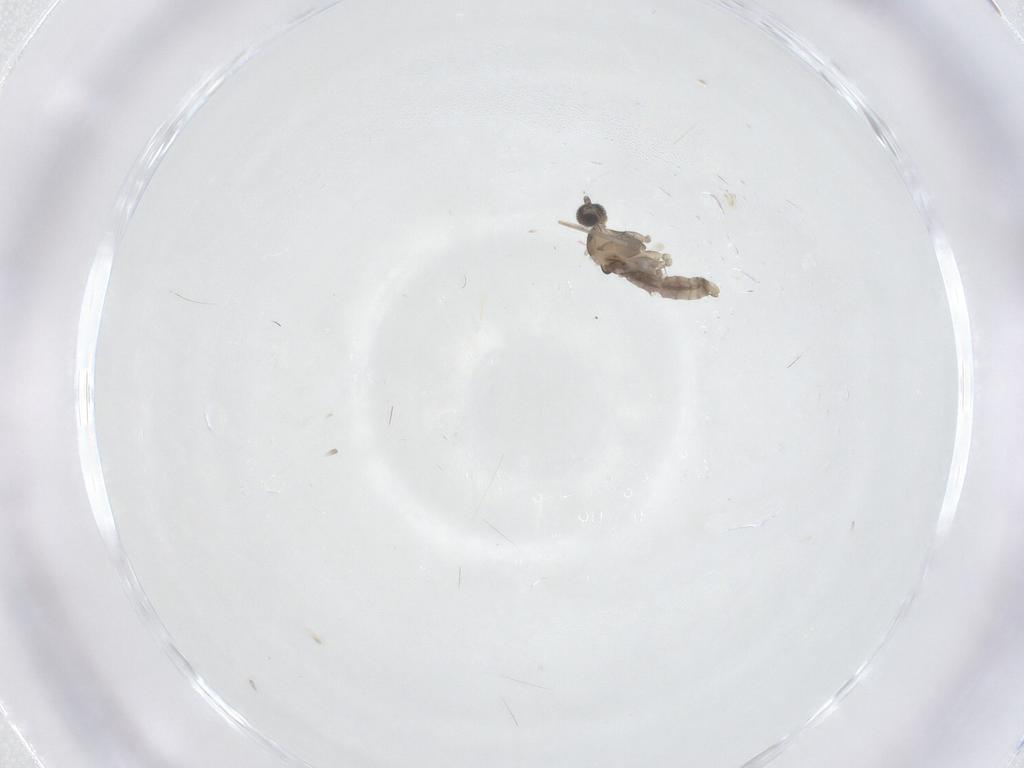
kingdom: Animalia
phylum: Arthropoda
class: Insecta
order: Diptera
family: Cecidomyiidae
